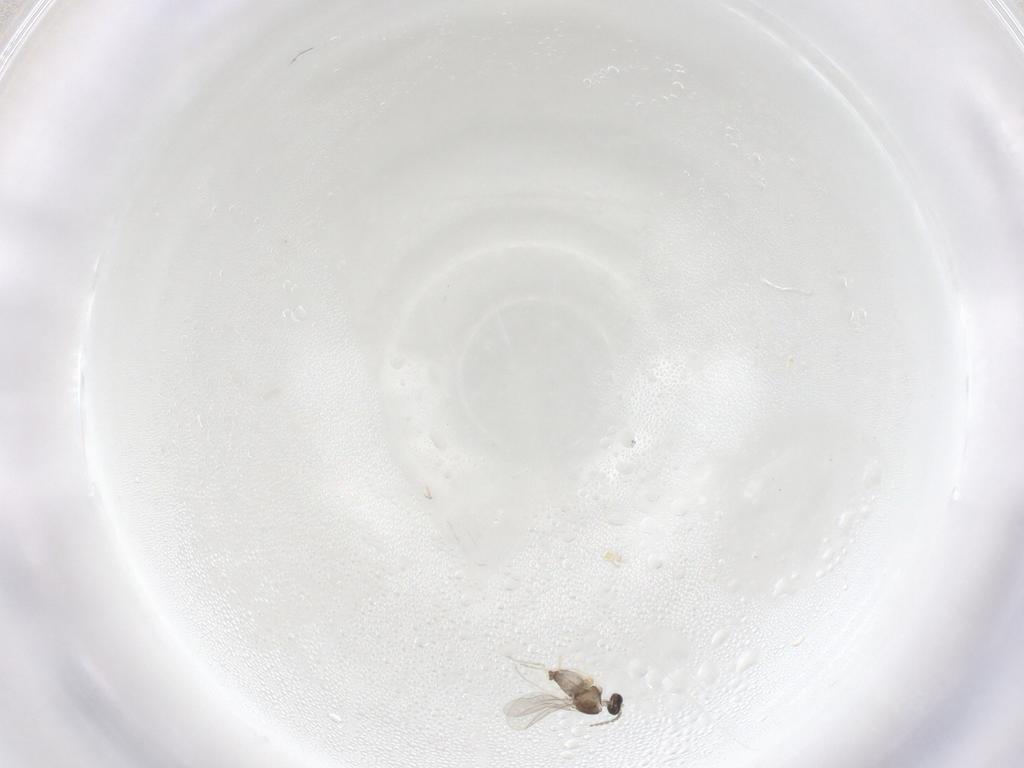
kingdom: Animalia
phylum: Arthropoda
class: Insecta
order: Diptera
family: Cecidomyiidae
